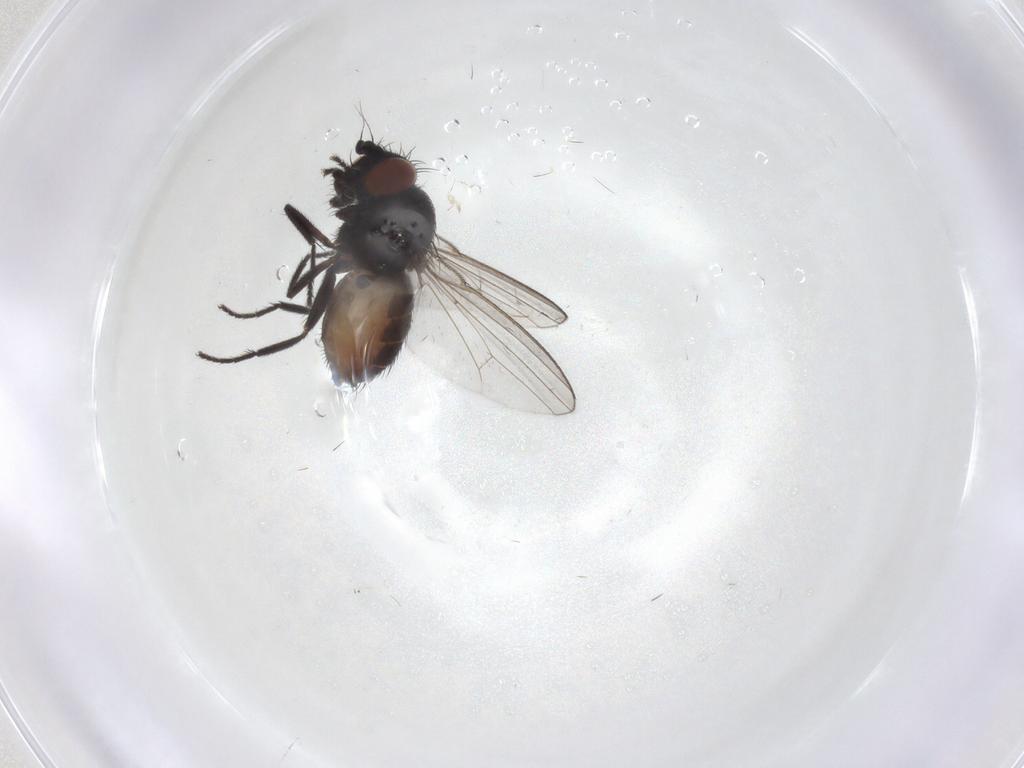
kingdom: Animalia
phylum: Arthropoda
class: Insecta
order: Diptera
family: Milichiidae
